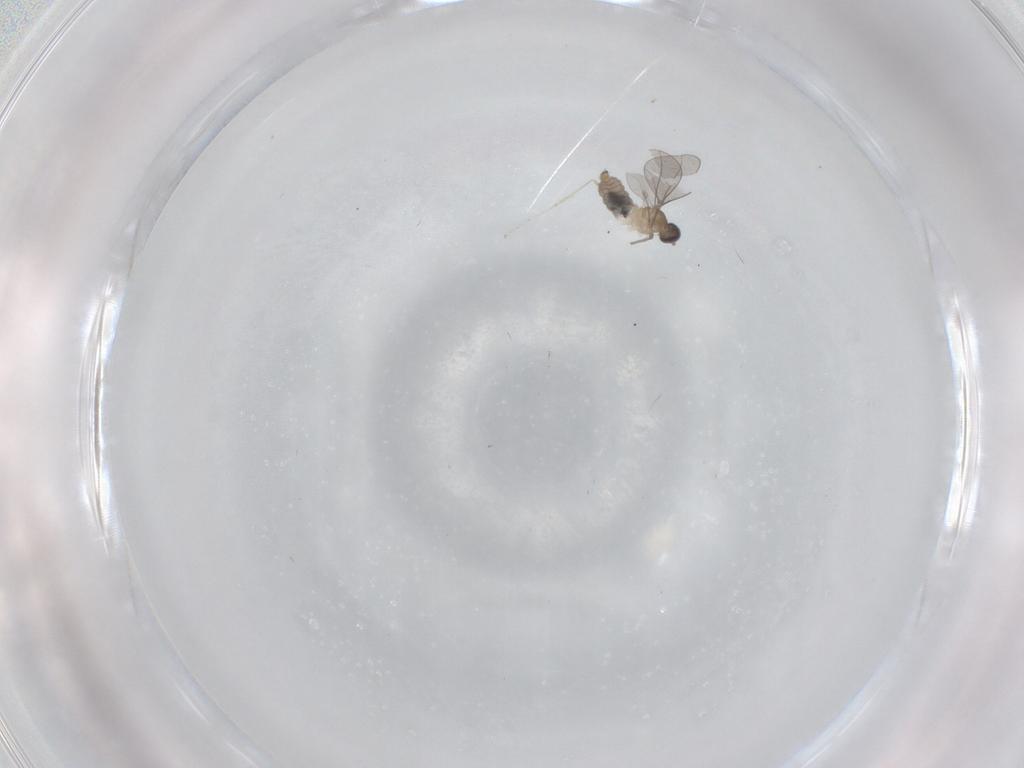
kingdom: Animalia
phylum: Arthropoda
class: Insecta
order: Diptera
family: Cecidomyiidae
